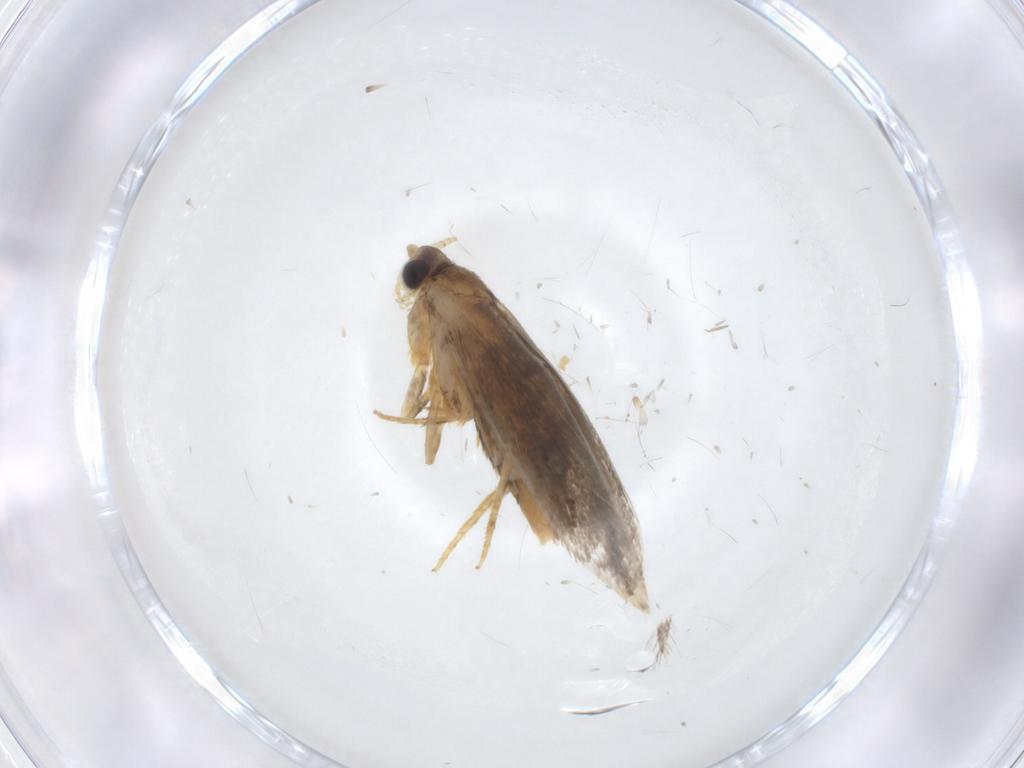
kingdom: Animalia
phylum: Arthropoda
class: Insecta
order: Lepidoptera
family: Tineidae
